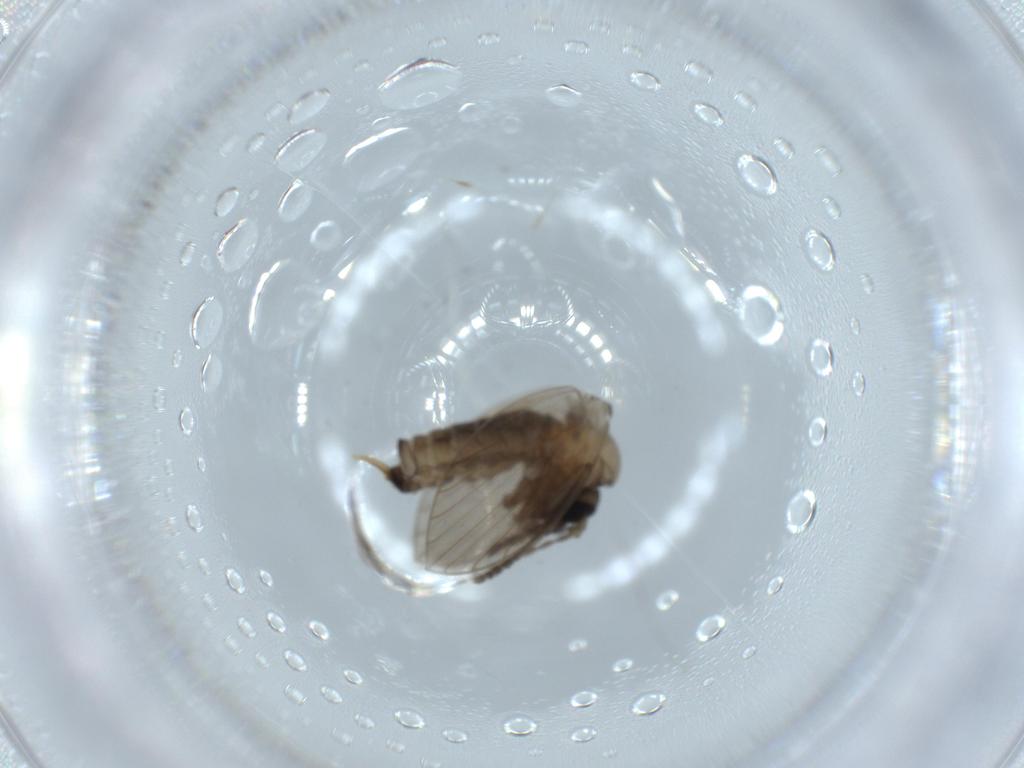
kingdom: Animalia
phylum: Arthropoda
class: Insecta
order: Diptera
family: Psychodidae
